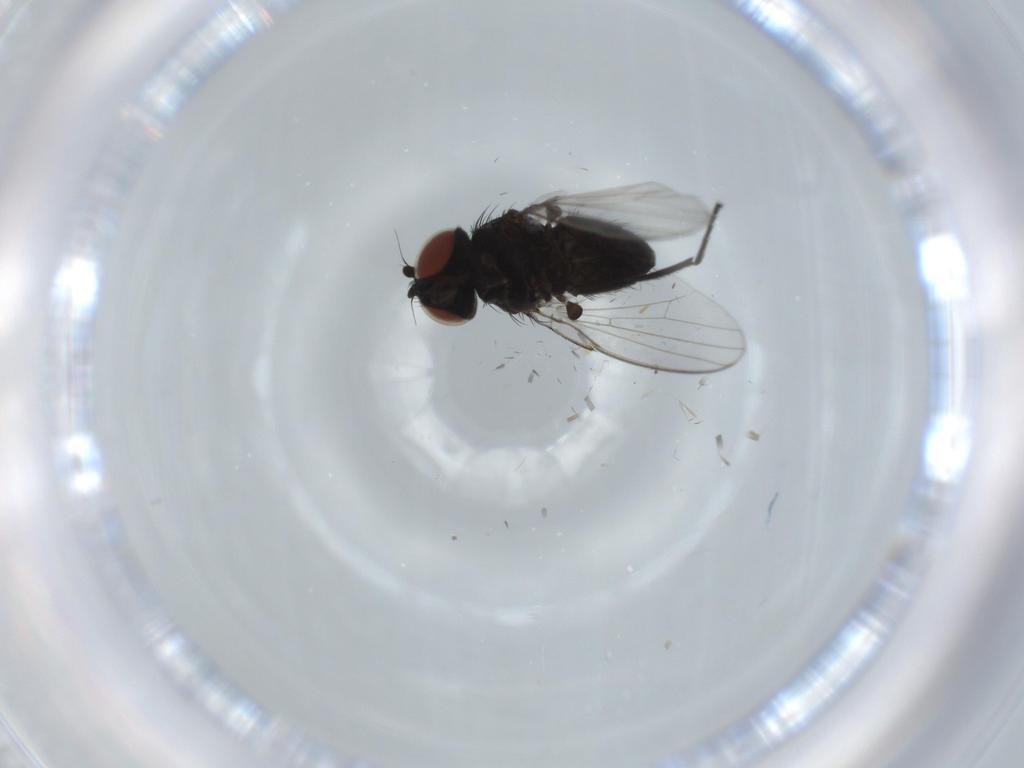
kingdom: Animalia
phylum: Arthropoda
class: Insecta
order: Diptera
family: Milichiidae
